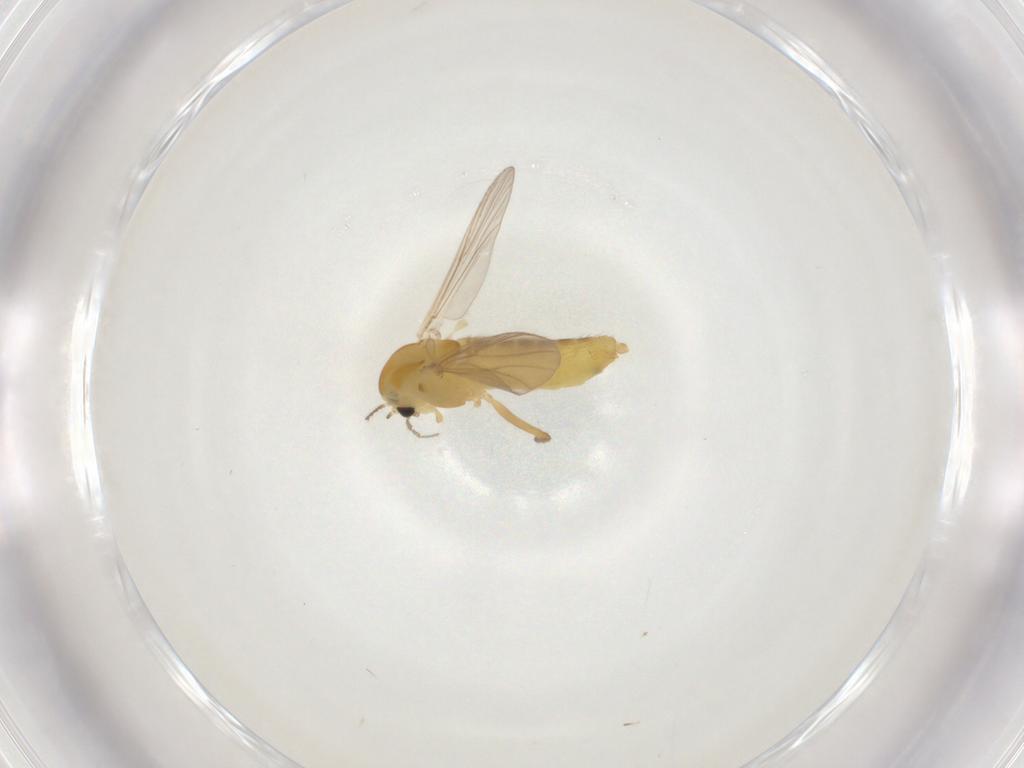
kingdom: Animalia
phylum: Arthropoda
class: Insecta
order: Diptera
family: Chironomidae
